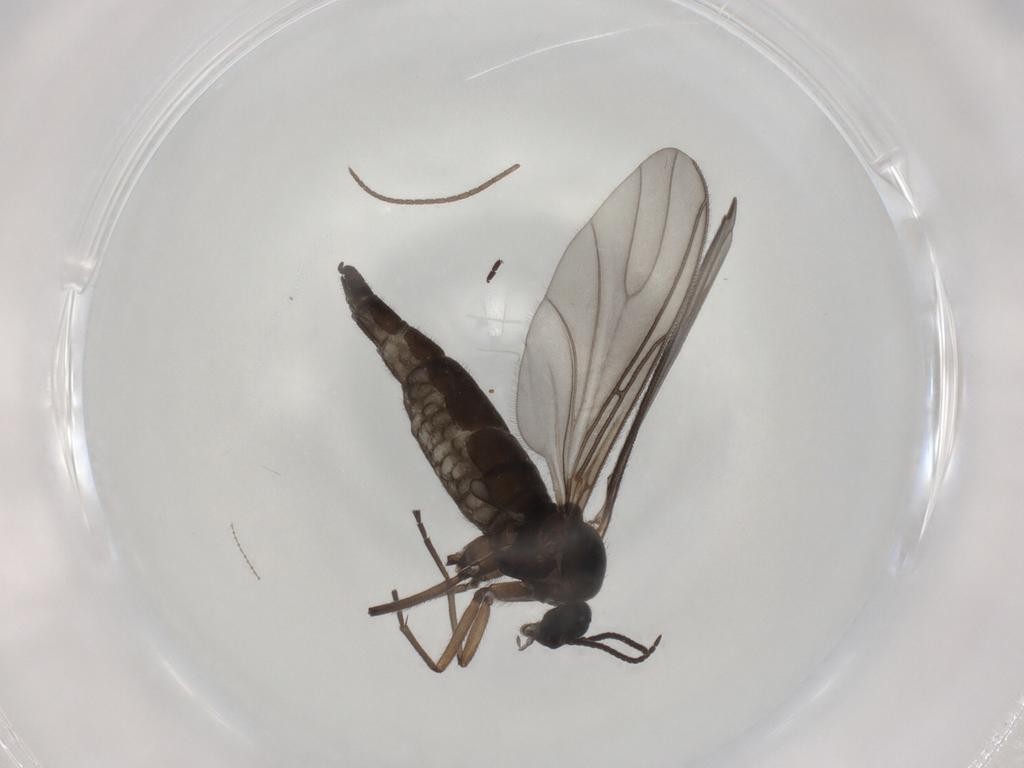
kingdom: Animalia
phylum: Arthropoda
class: Insecta
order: Diptera
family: Sciaridae
